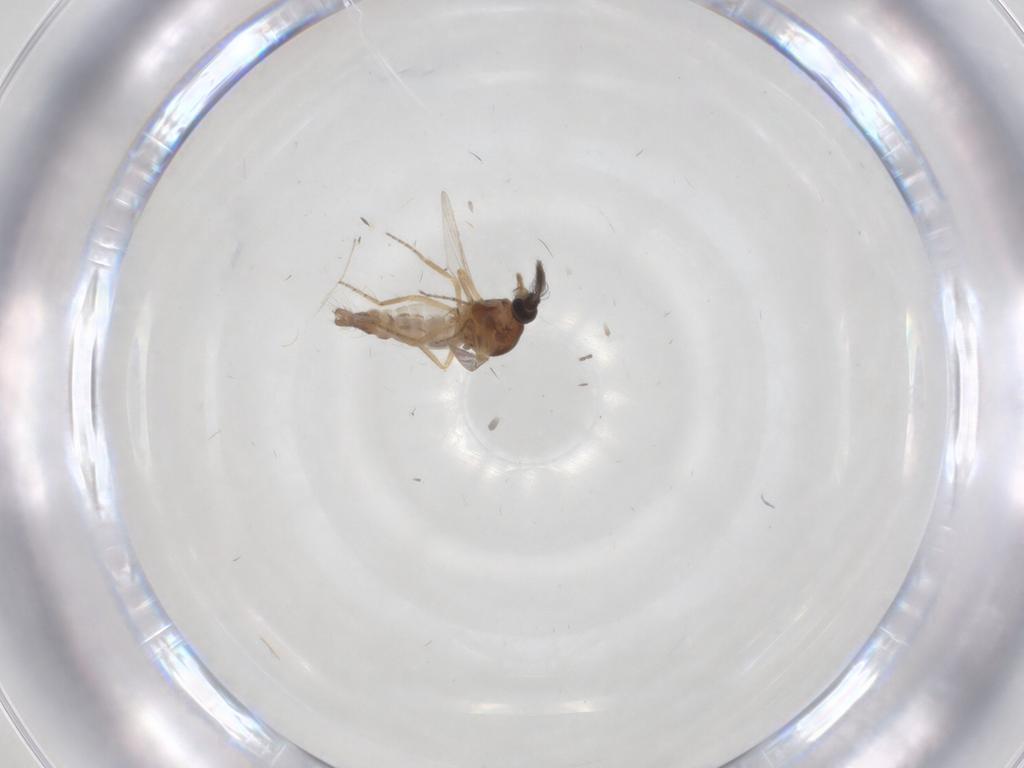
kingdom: Animalia
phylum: Arthropoda
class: Insecta
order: Diptera
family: Ceratopogonidae
